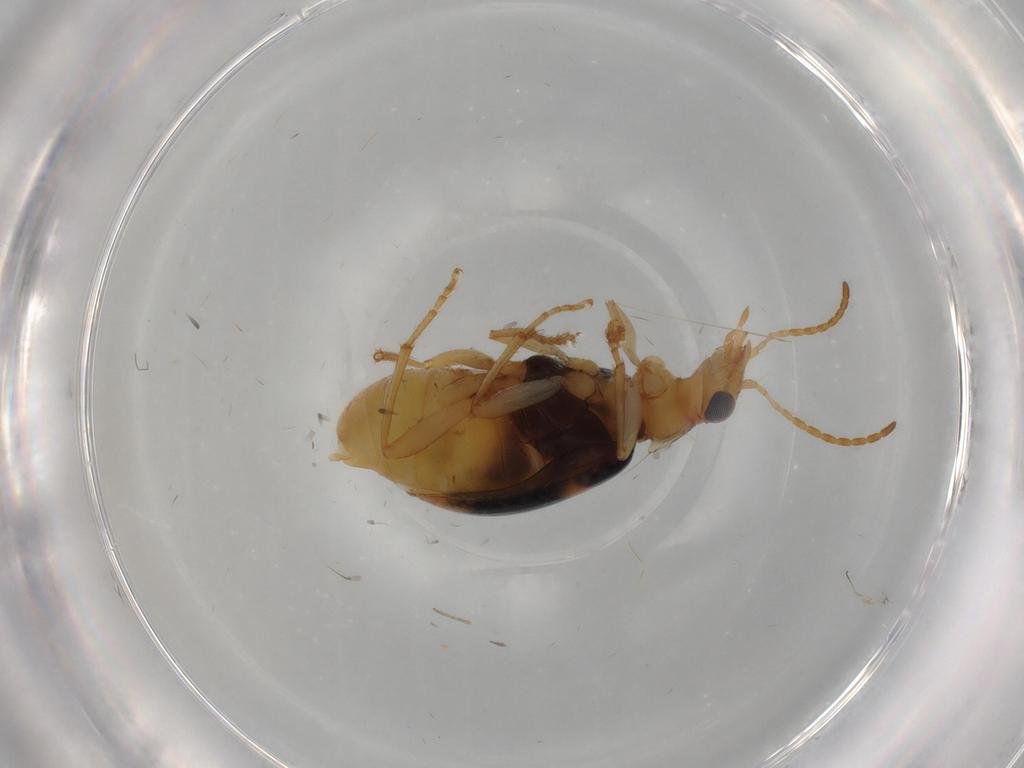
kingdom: Animalia
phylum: Arthropoda
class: Insecta
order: Coleoptera
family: Carabidae
